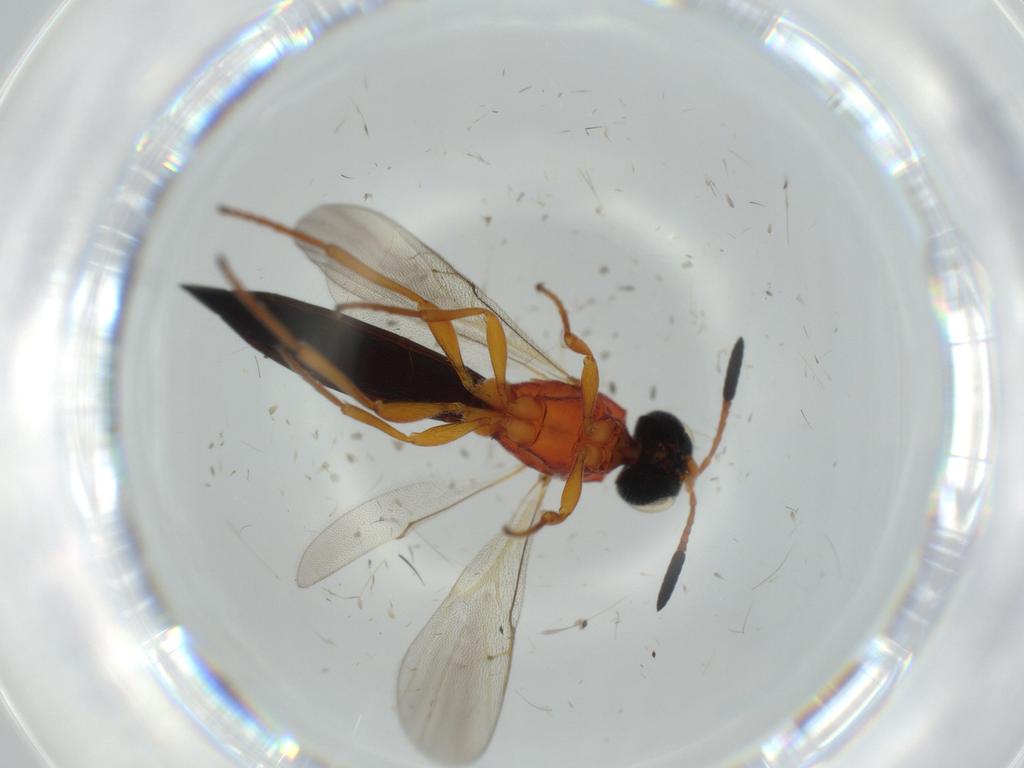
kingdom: Animalia
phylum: Arthropoda
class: Insecta
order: Hymenoptera
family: Scelionidae
